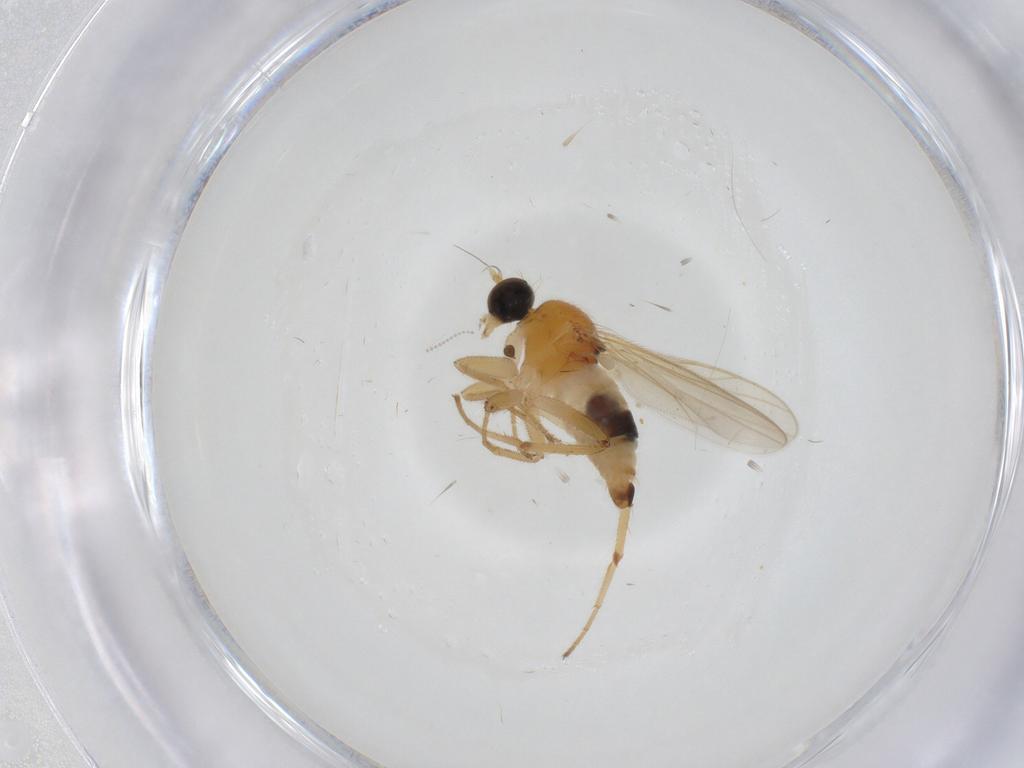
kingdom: Animalia
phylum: Arthropoda
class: Insecta
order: Diptera
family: Hybotidae
